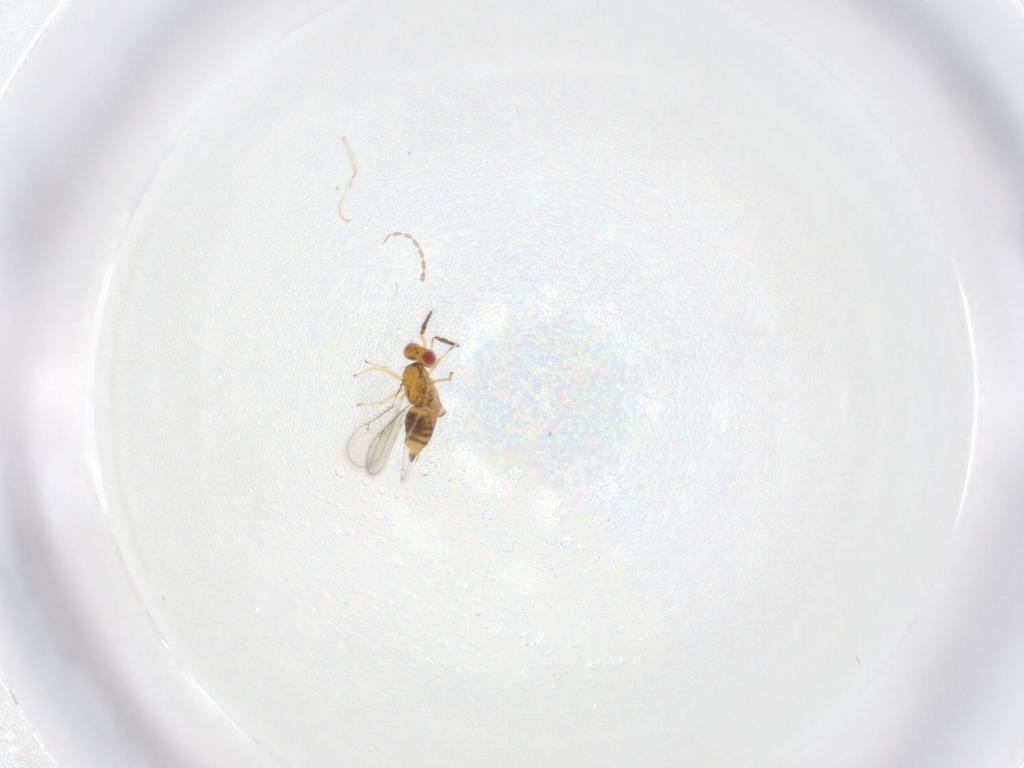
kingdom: Animalia
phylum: Arthropoda
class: Insecta
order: Diptera
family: Cecidomyiidae
